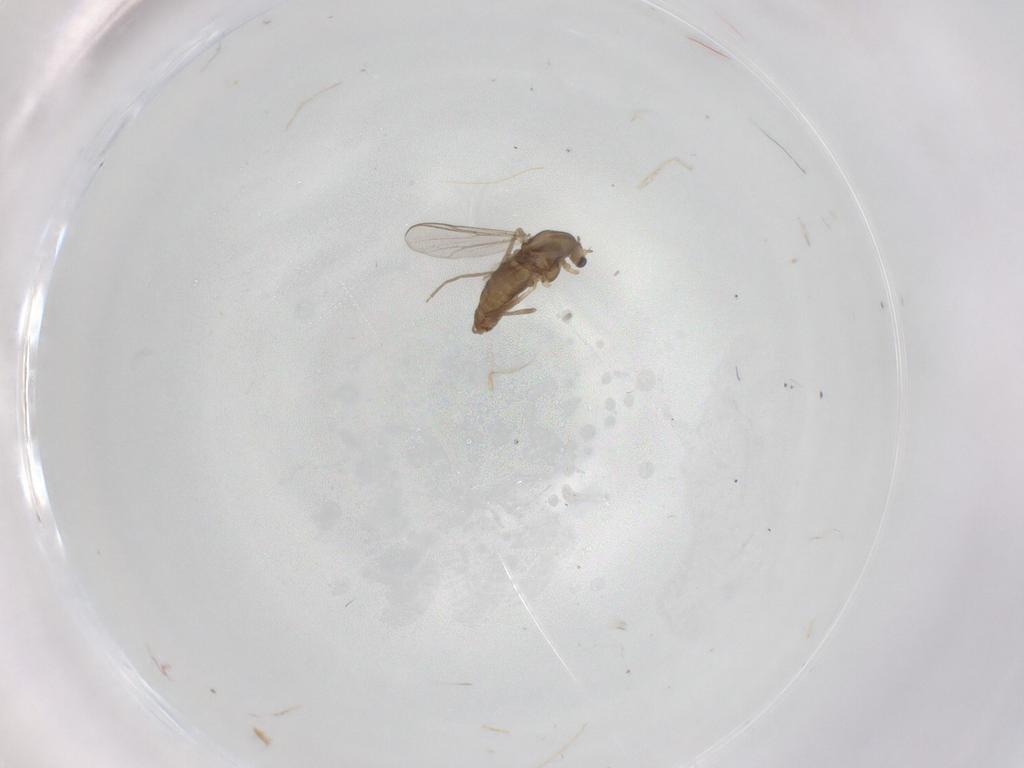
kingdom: Animalia
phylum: Arthropoda
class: Insecta
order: Diptera
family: Chironomidae
